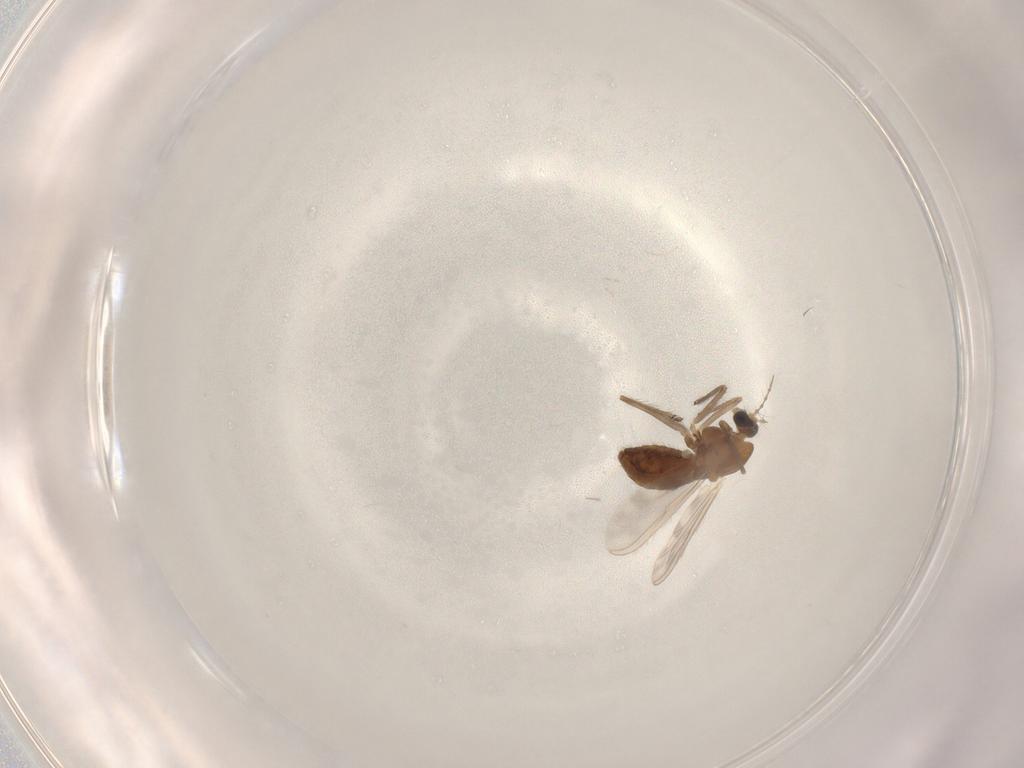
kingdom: Animalia
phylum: Arthropoda
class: Insecta
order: Diptera
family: Chironomidae
